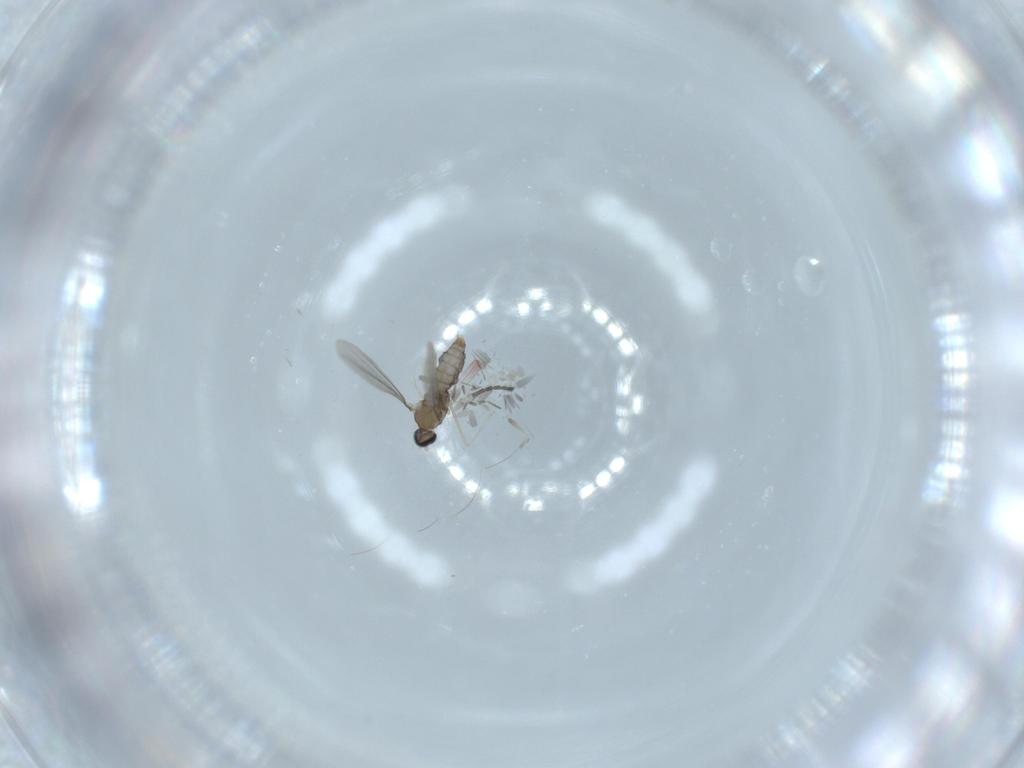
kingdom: Animalia
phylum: Arthropoda
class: Insecta
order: Diptera
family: Cecidomyiidae
